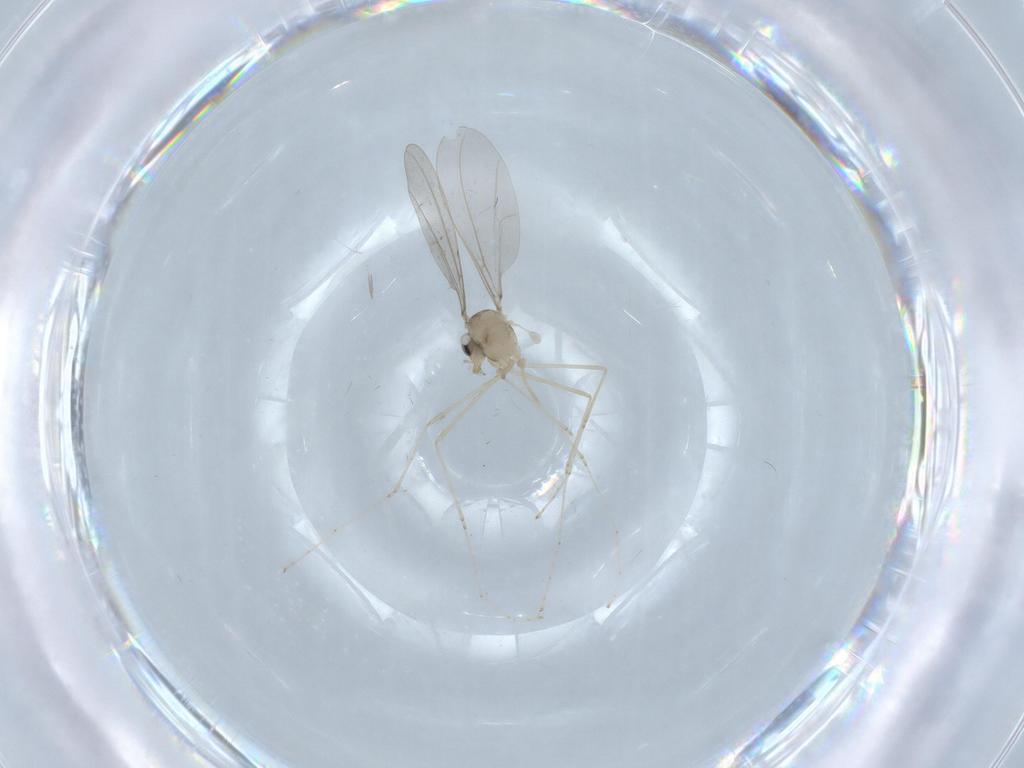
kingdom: Animalia
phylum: Arthropoda
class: Insecta
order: Diptera
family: Cecidomyiidae
